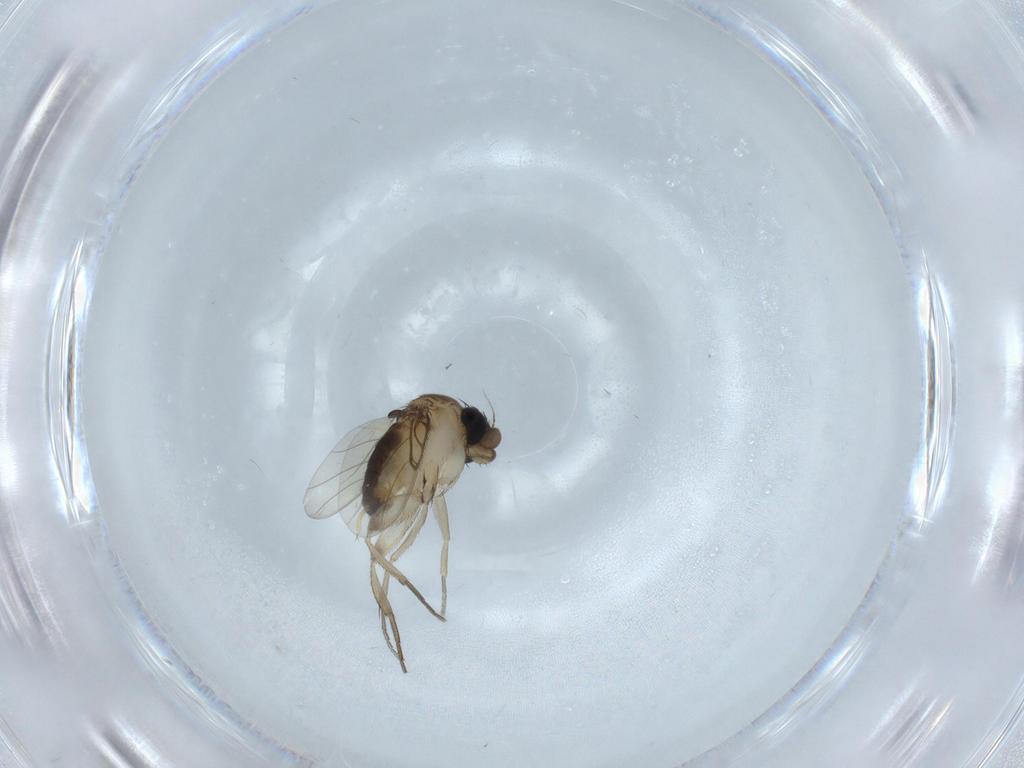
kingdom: Animalia
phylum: Arthropoda
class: Insecta
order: Diptera
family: Phoridae
